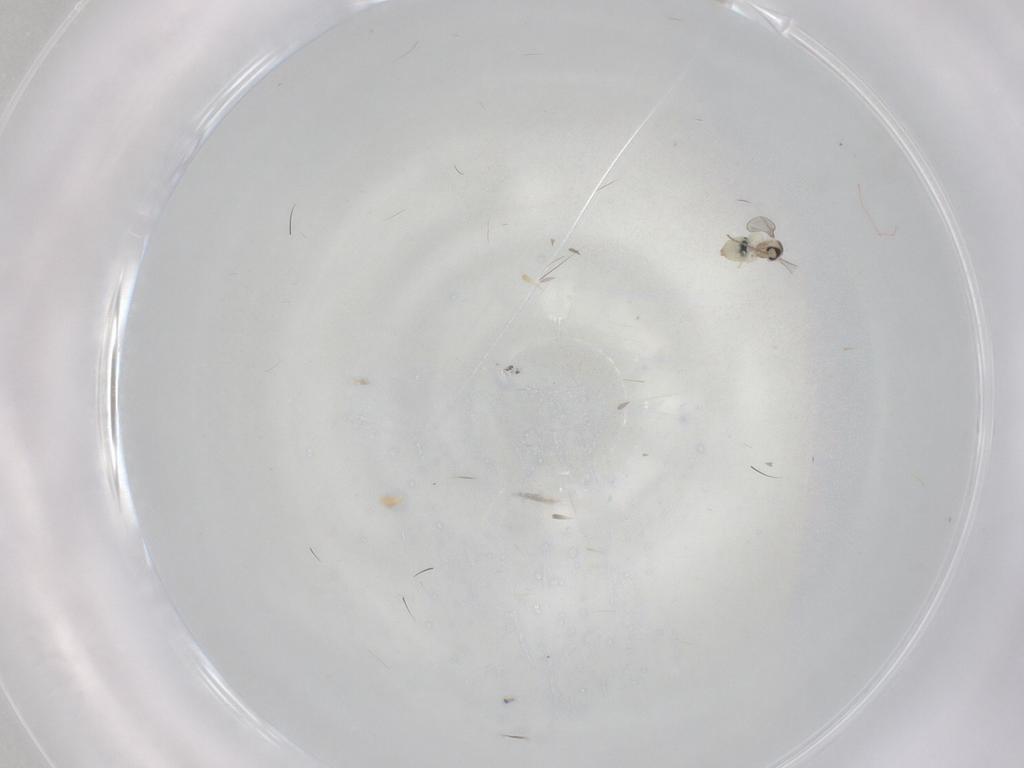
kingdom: Animalia
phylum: Arthropoda
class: Insecta
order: Diptera
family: Cecidomyiidae
